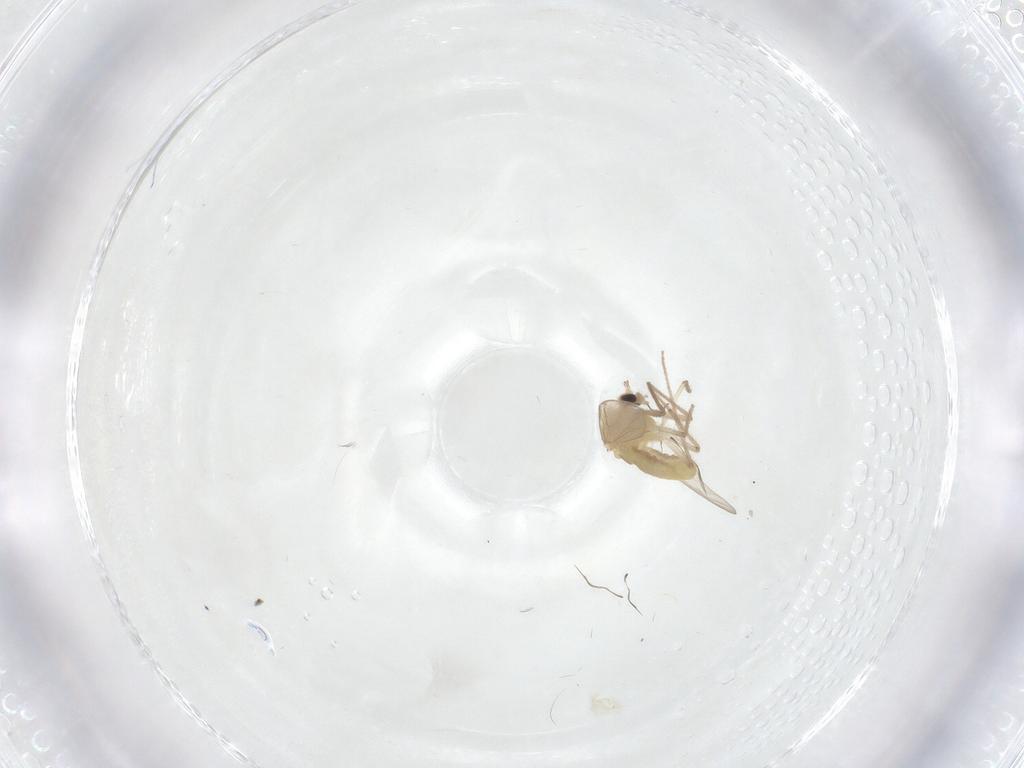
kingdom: Animalia
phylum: Arthropoda
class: Insecta
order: Diptera
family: Chironomidae
